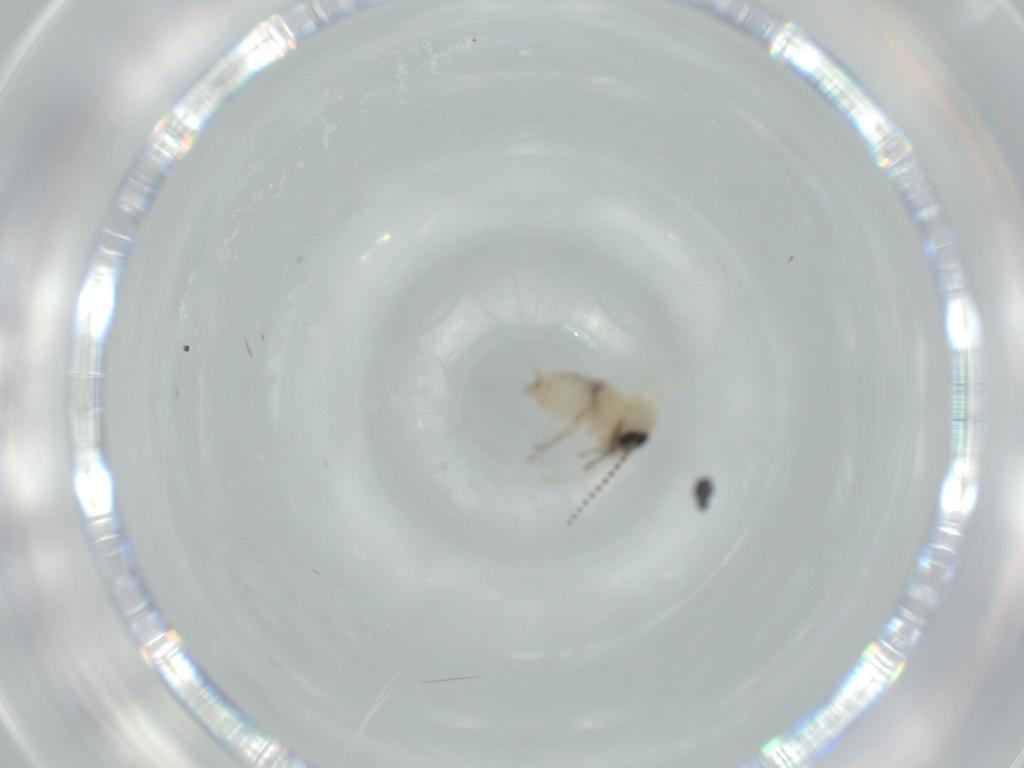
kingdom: Animalia
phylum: Arthropoda
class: Insecta
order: Diptera
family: Psychodidae
